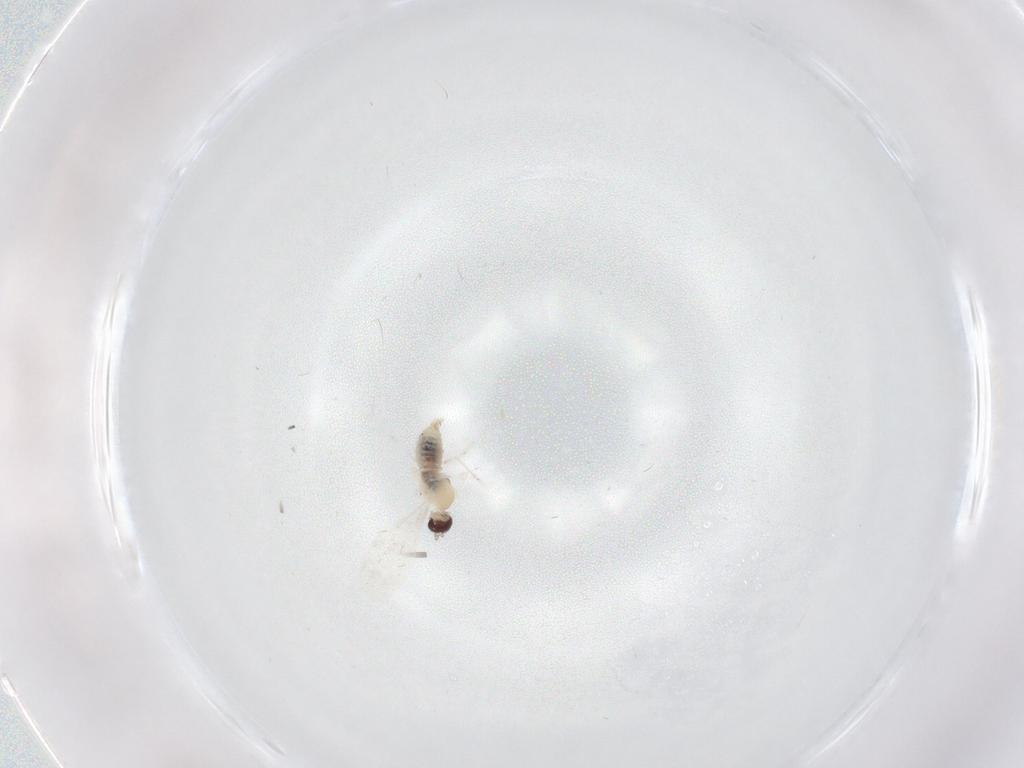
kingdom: Animalia
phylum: Arthropoda
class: Insecta
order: Diptera
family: Cecidomyiidae
